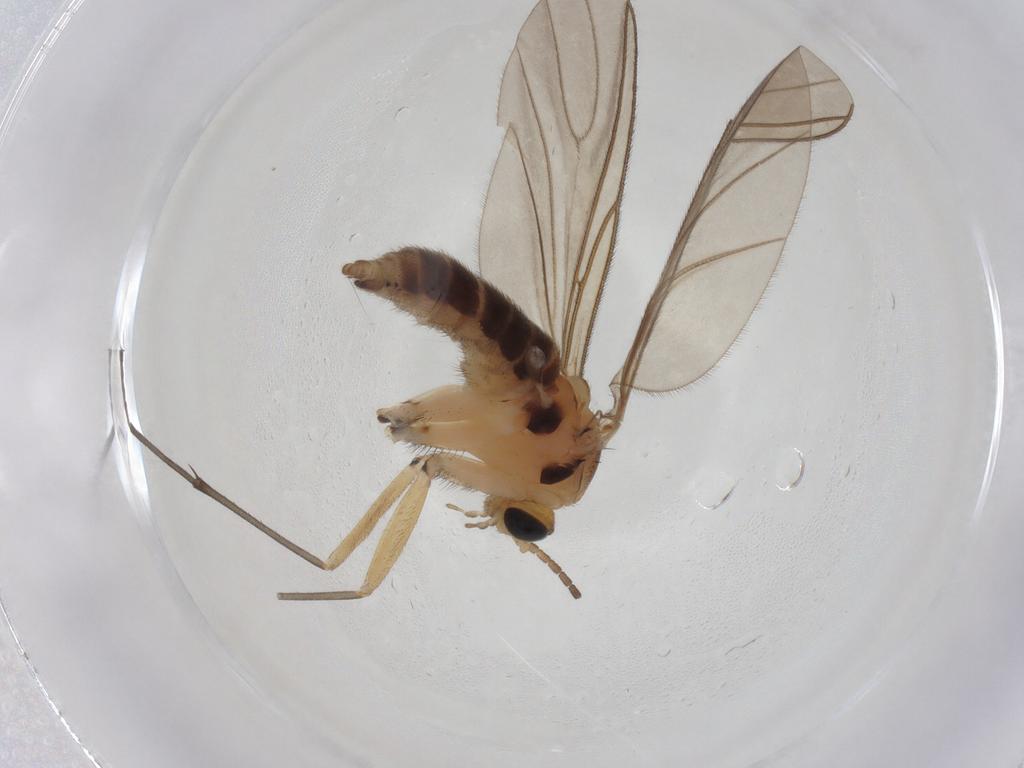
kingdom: Animalia
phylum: Arthropoda
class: Insecta
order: Diptera
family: Sciaridae
